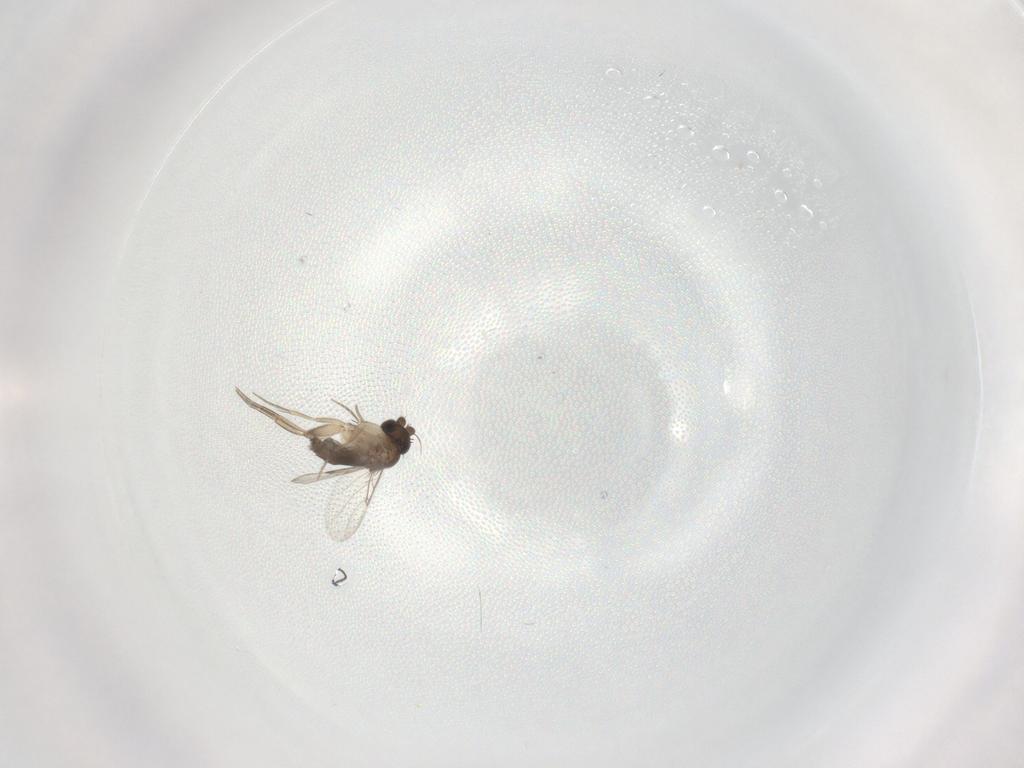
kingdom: Animalia
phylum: Arthropoda
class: Insecta
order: Diptera
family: Phoridae
